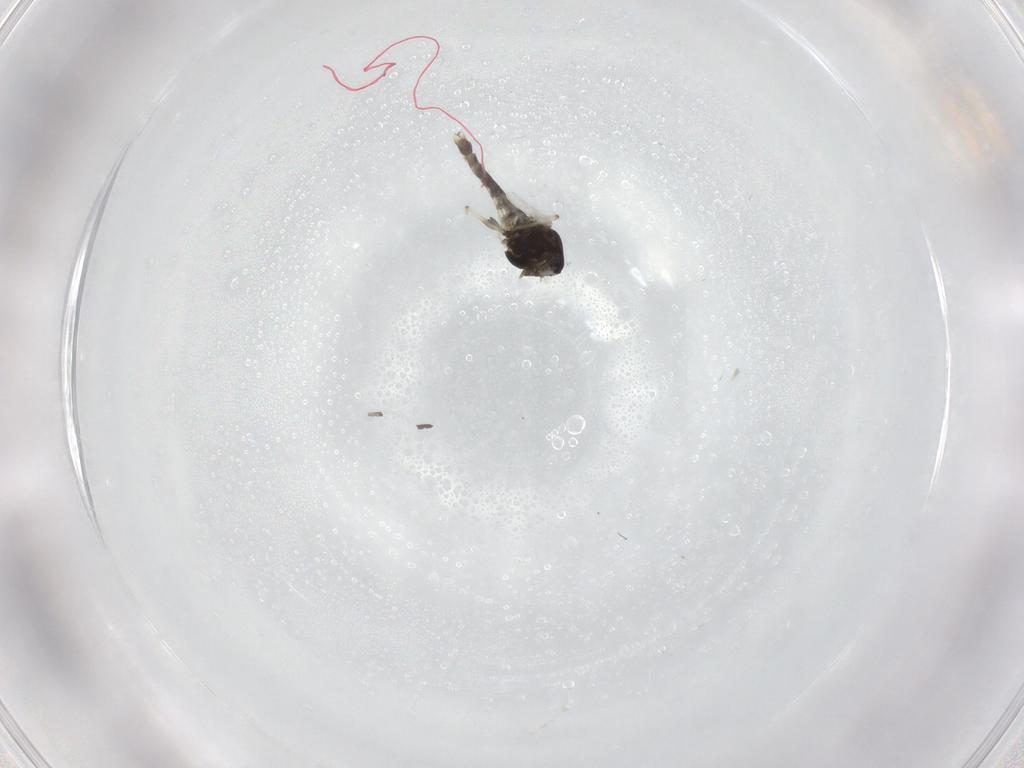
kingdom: Animalia
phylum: Arthropoda
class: Insecta
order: Diptera
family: Chironomidae
